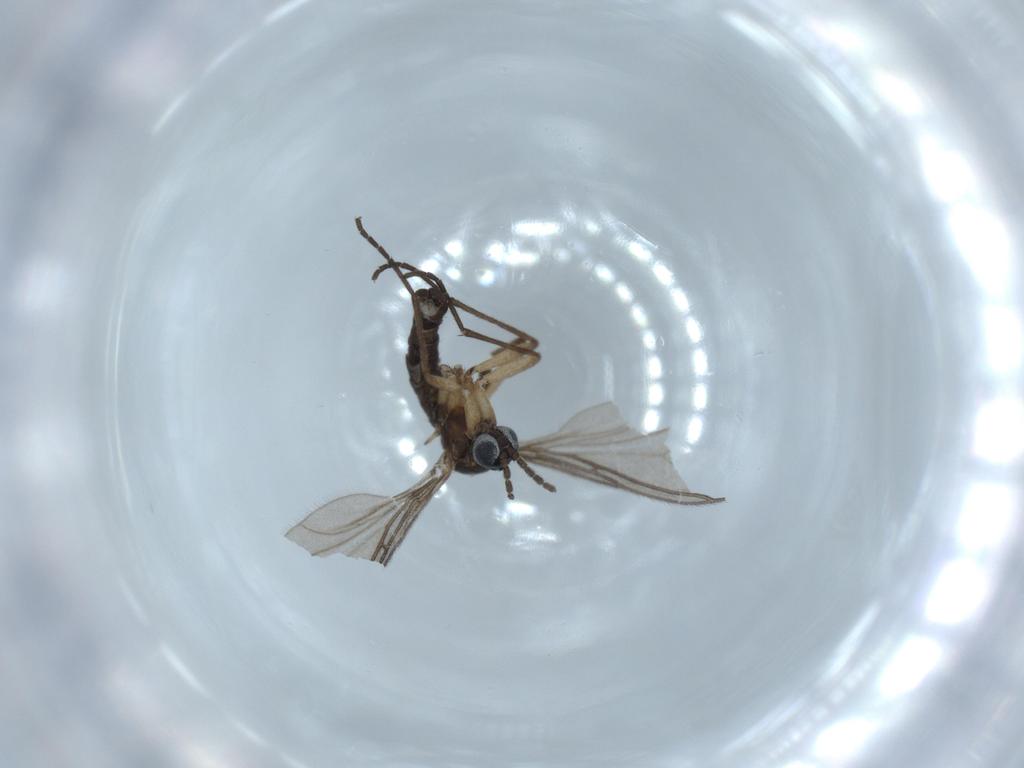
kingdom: Animalia
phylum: Arthropoda
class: Insecta
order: Diptera
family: Sciaridae
